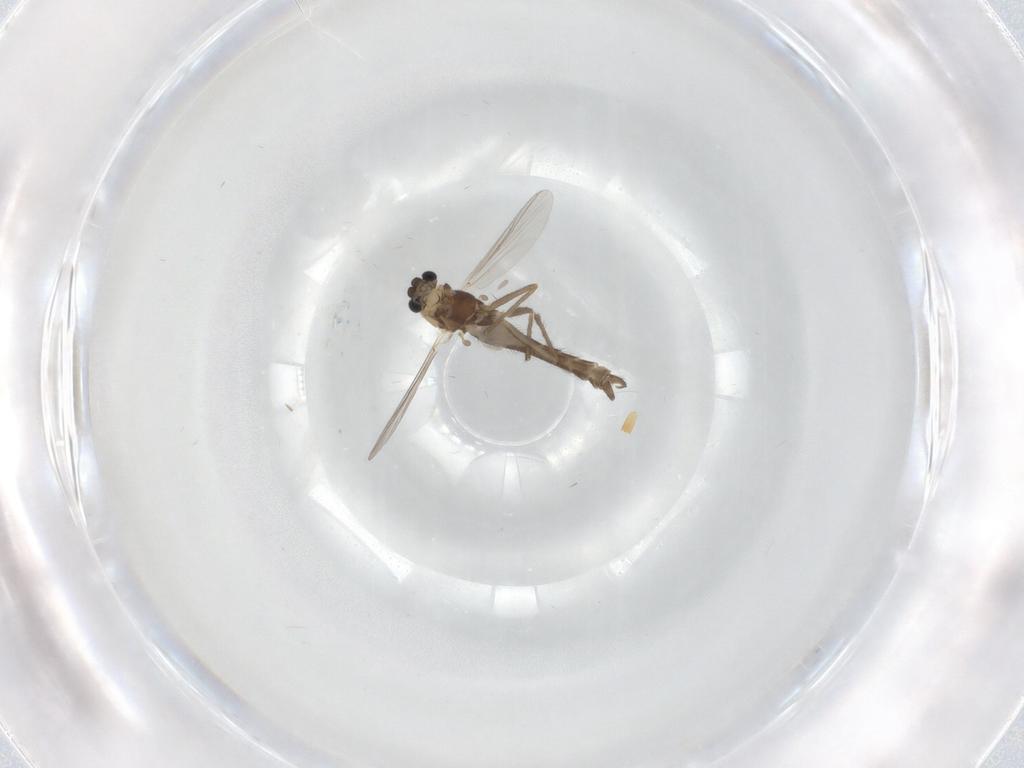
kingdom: Animalia
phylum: Arthropoda
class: Insecta
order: Diptera
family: Chironomidae
